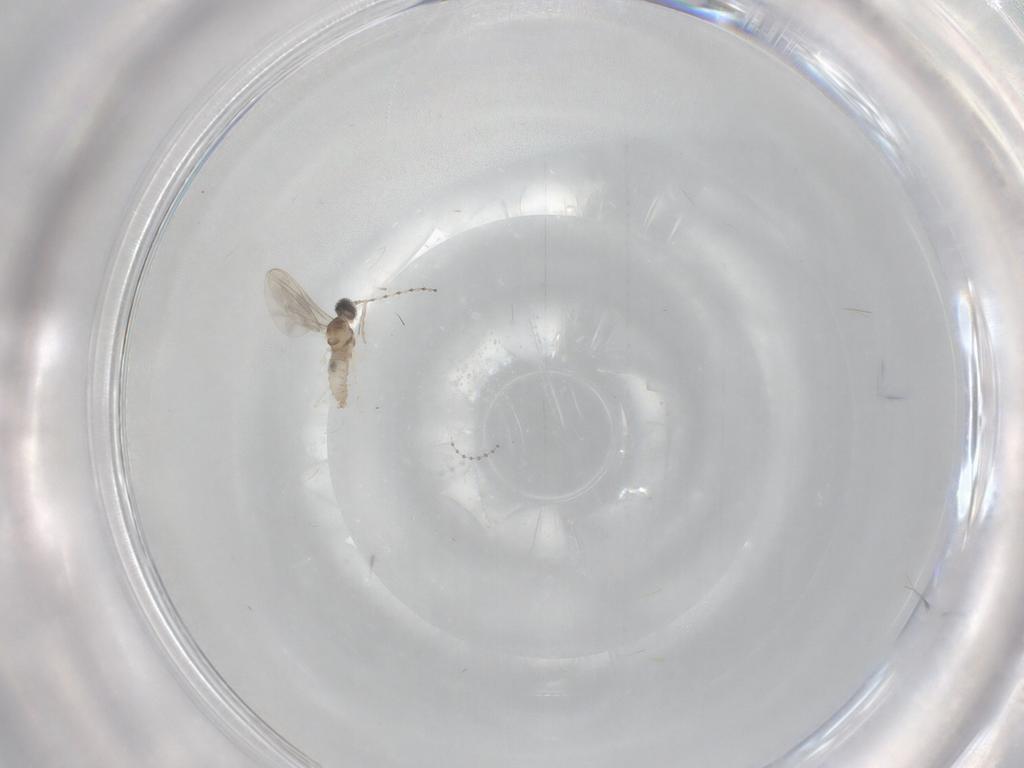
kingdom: Animalia
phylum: Arthropoda
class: Insecta
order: Diptera
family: Cecidomyiidae
